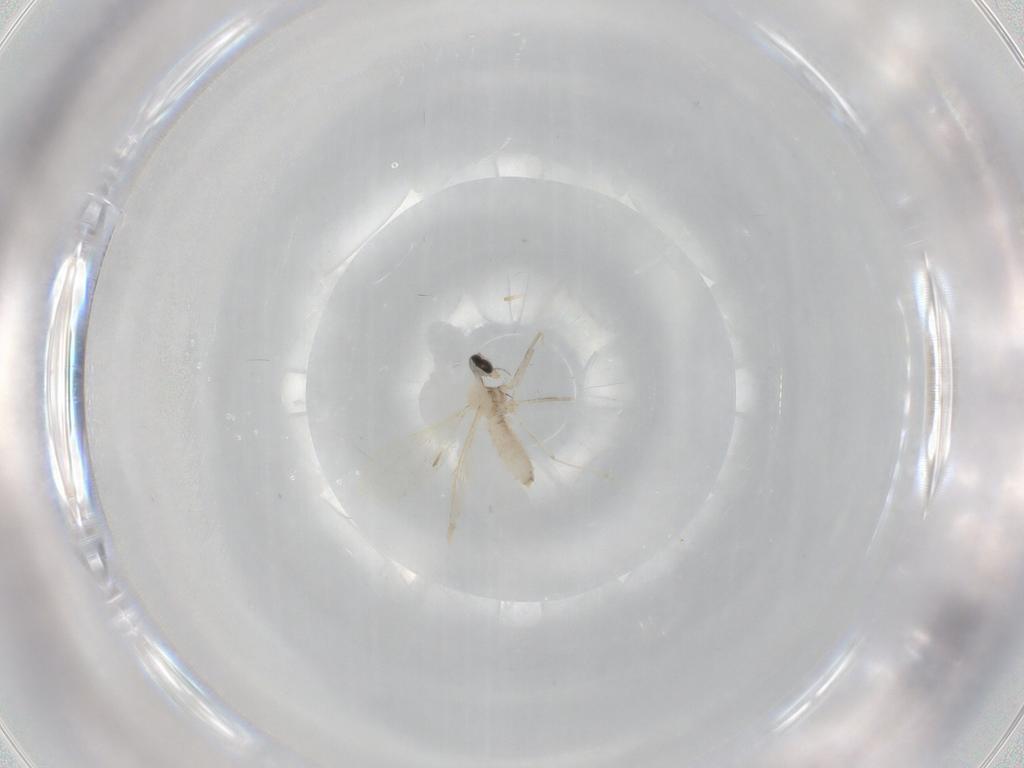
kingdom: Animalia
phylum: Arthropoda
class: Insecta
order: Diptera
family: Cecidomyiidae
